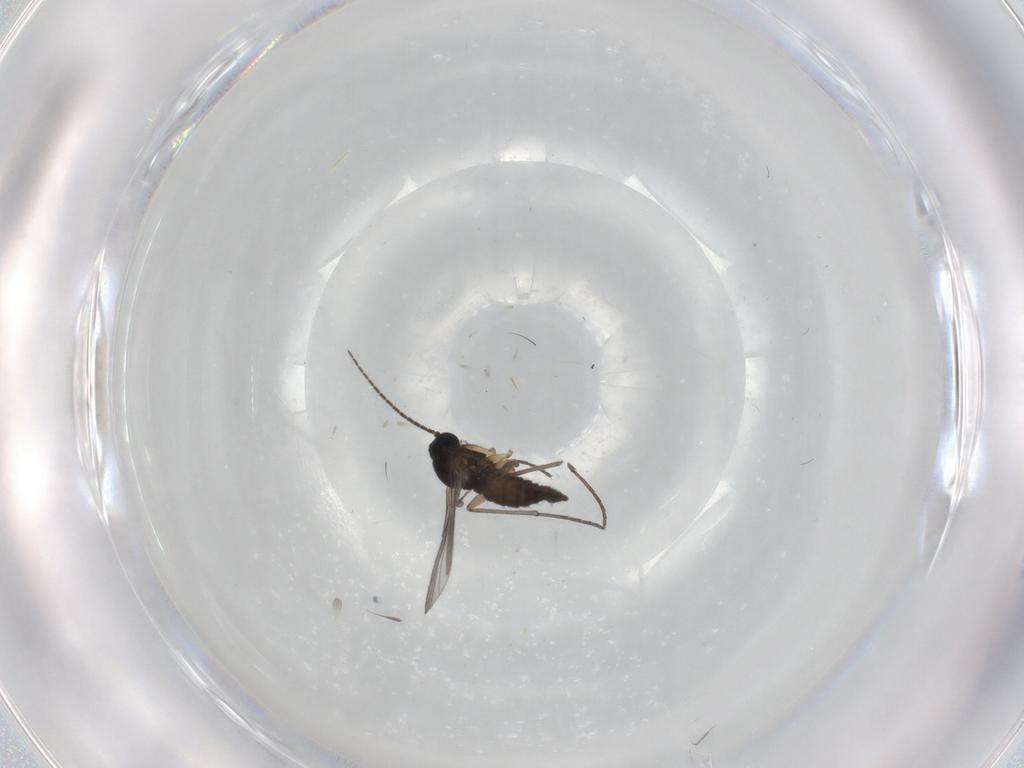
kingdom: Animalia
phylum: Arthropoda
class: Insecta
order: Diptera
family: Sciaridae
